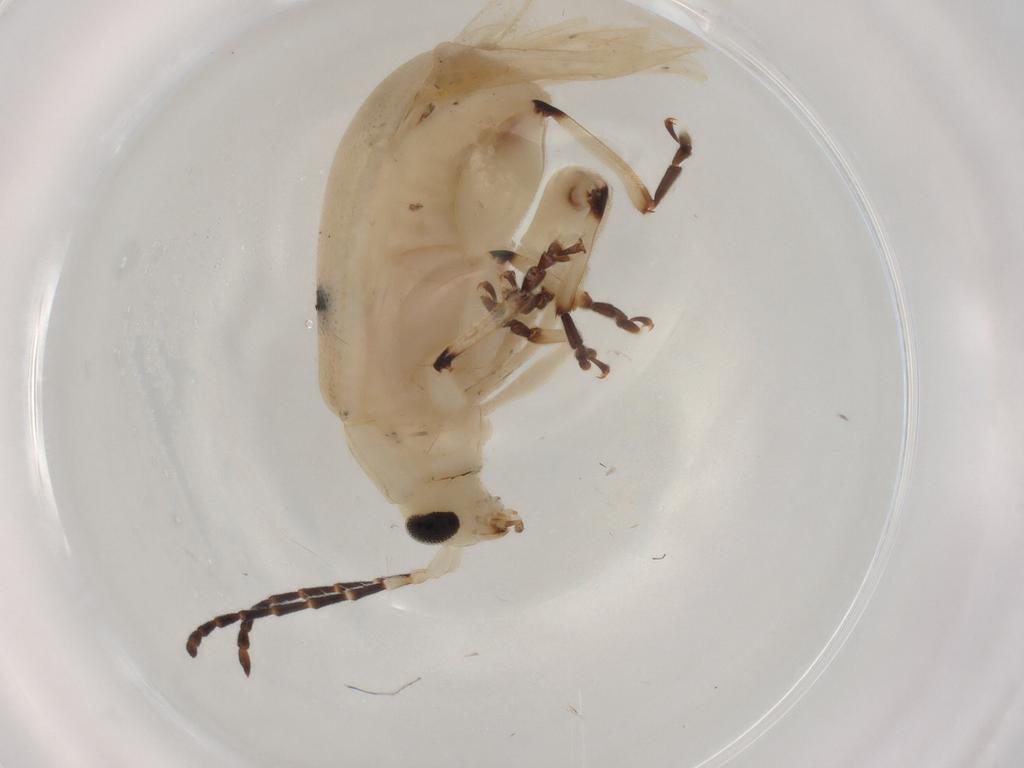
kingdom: Animalia
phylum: Arthropoda
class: Insecta
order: Coleoptera
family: Chrysomelidae
